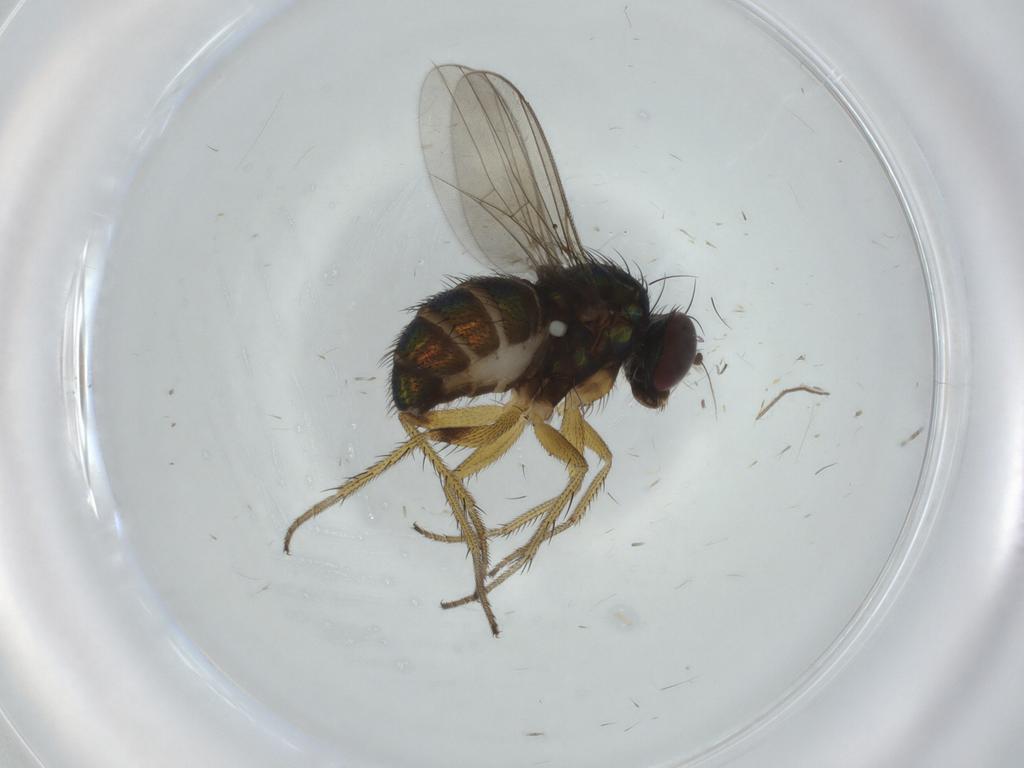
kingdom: Animalia
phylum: Arthropoda
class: Insecta
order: Diptera
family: Dolichopodidae
